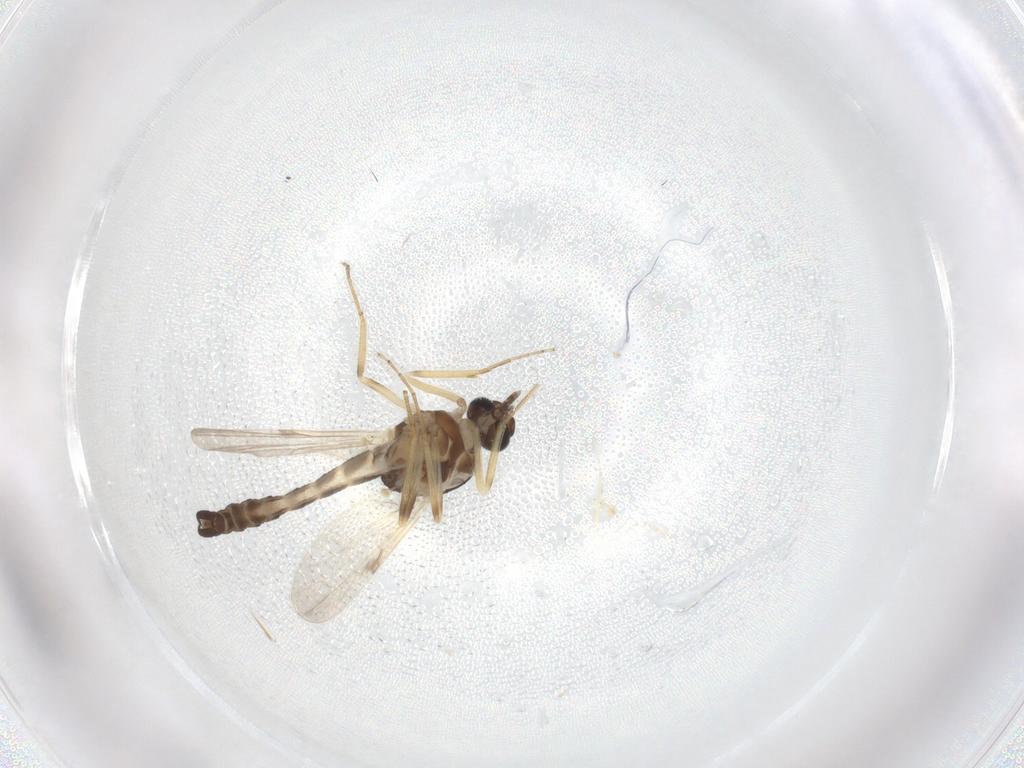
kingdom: Animalia
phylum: Arthropoda
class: Insecta
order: Diptera
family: Ceratopogonidae
